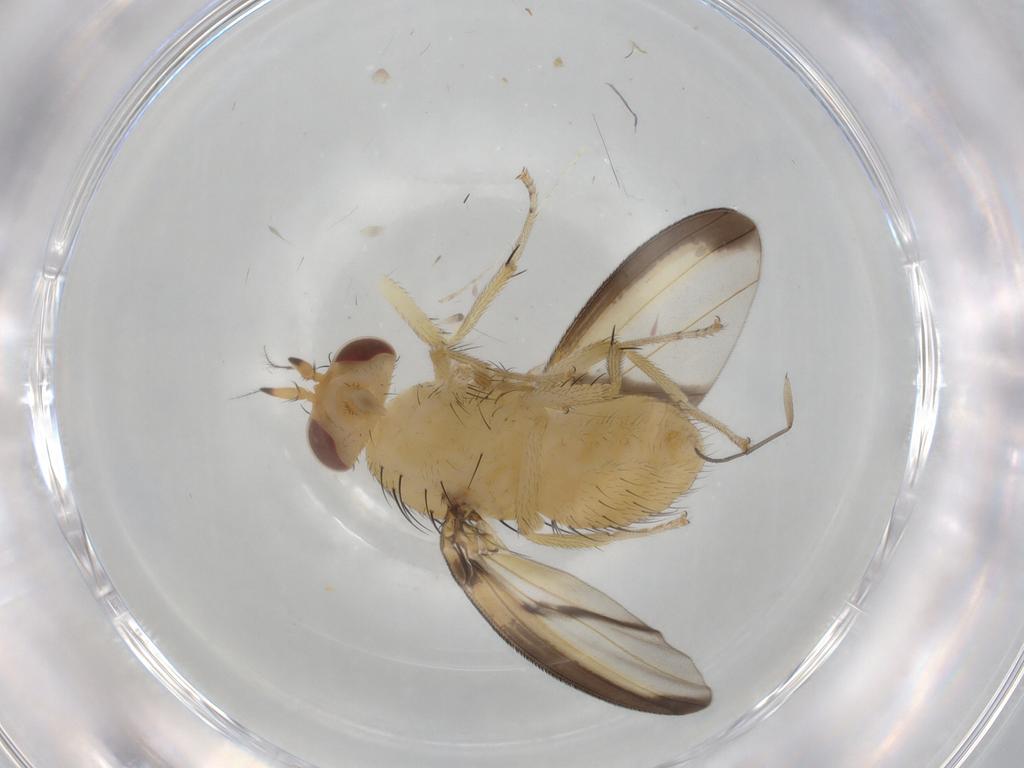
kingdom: Animalia
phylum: Arthropoda
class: Insecta
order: Diptera
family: Lauxaniidae
